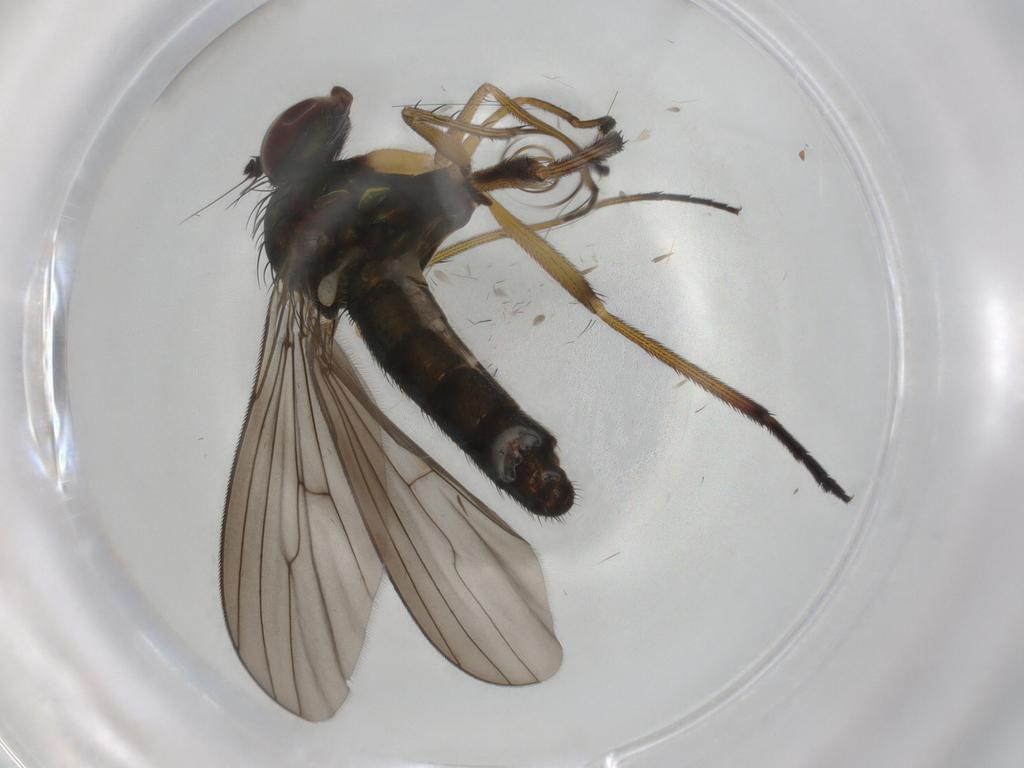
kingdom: Animalia
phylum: Arthropoda
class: Insecta
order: Diptera
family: Dolichopodidae
